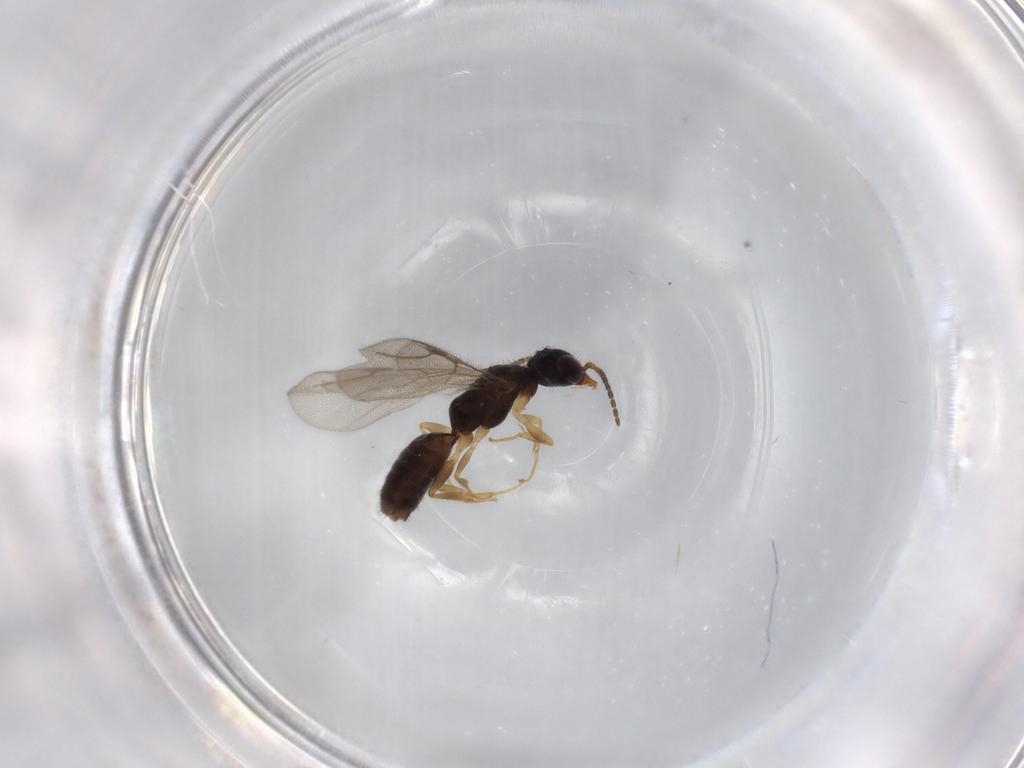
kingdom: Animalia
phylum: Arthropoda
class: Insecta
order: Hymenoptera
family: Bethylidae
